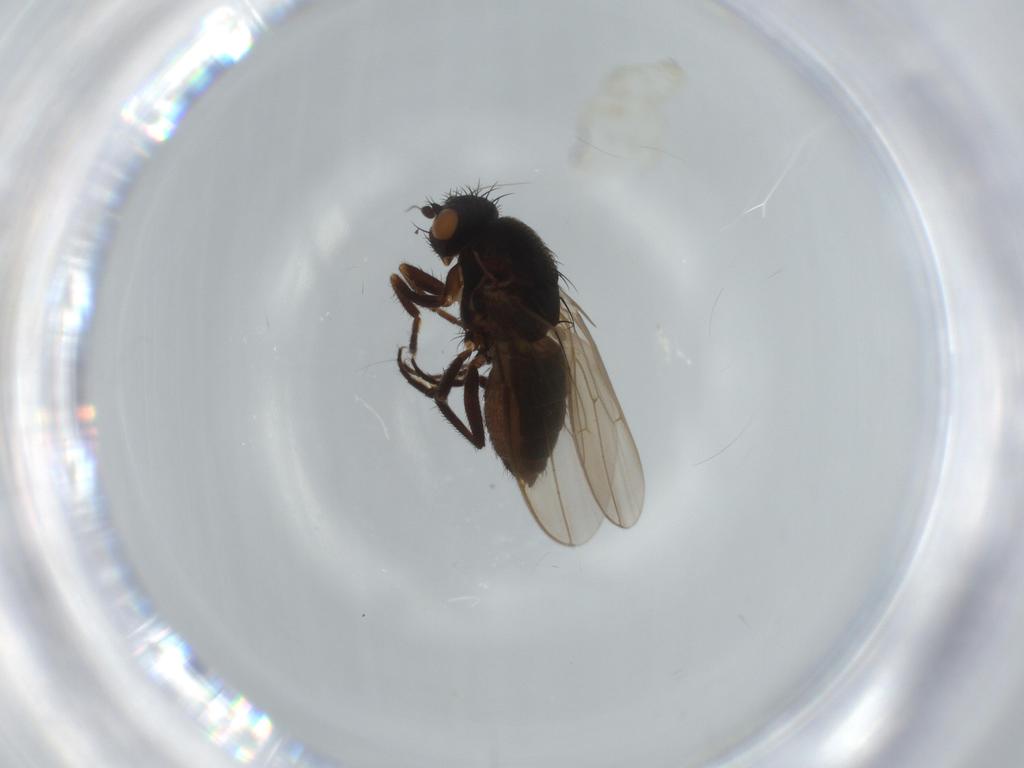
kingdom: Animalia
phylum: Arthropoda
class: Insecta
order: Diptera
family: Sphaeroceridae
